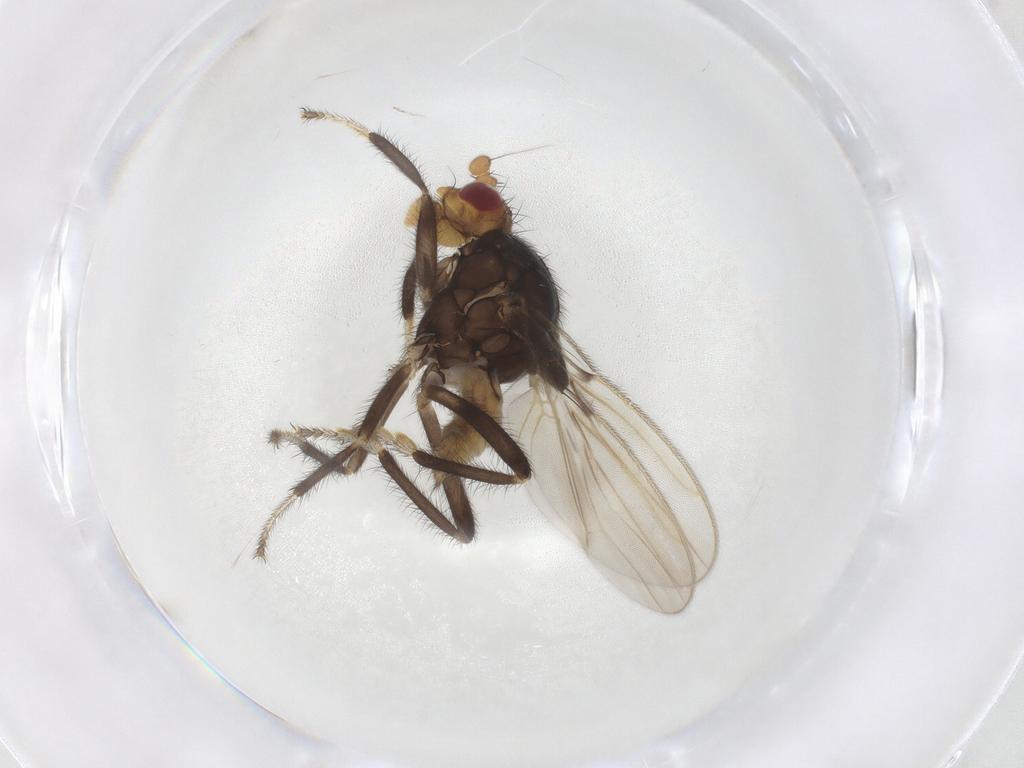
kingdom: Animalia
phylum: Arthropoda
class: Insecta
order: Diptera
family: Sphaeroceridae
